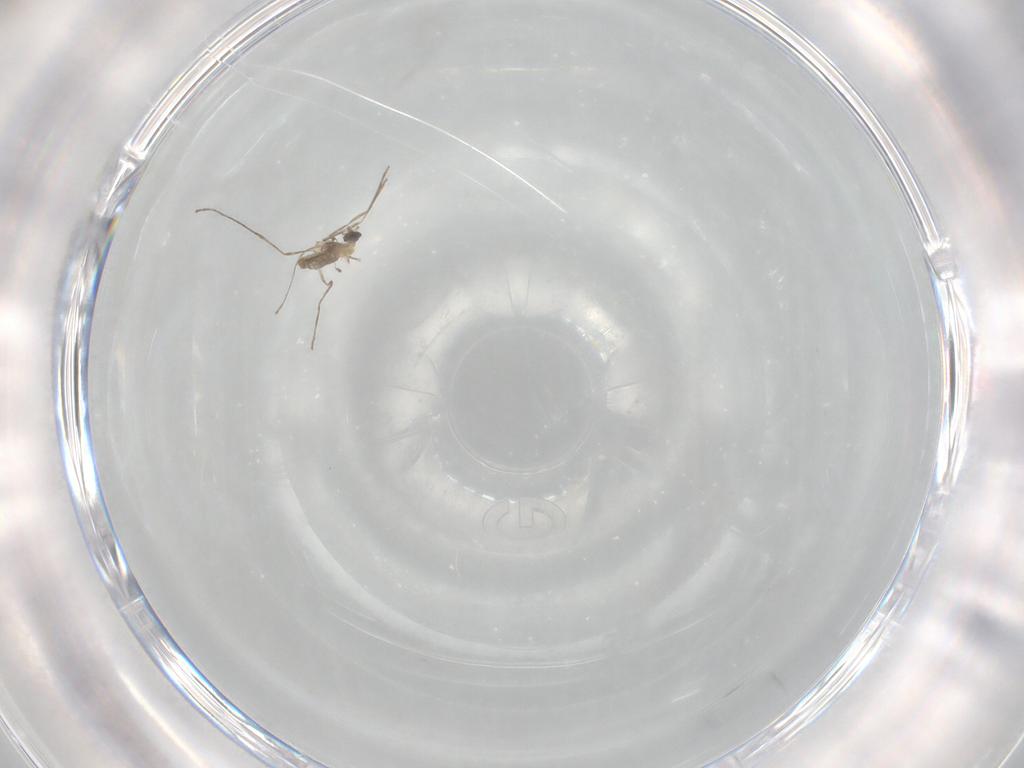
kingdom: Animalia
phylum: Arthropoda
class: Insecta
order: Diptera
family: Cecidomyiidae
